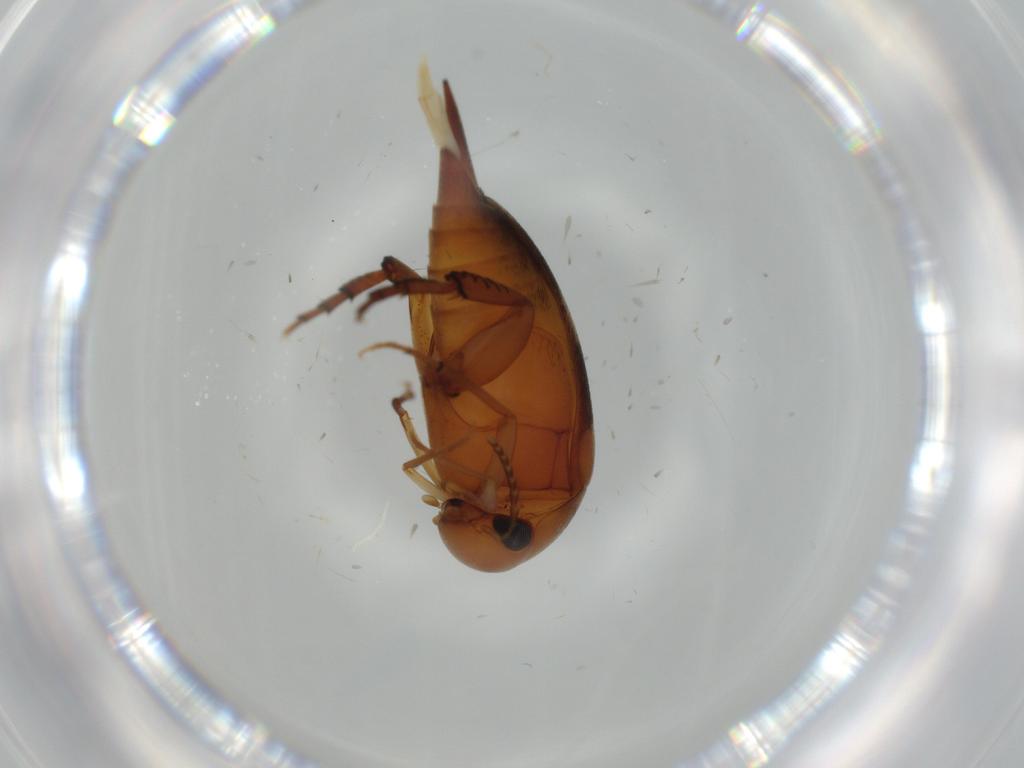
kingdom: Animalia
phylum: Arthropoda
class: Insecta
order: Coleoptera
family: Mordellidae
